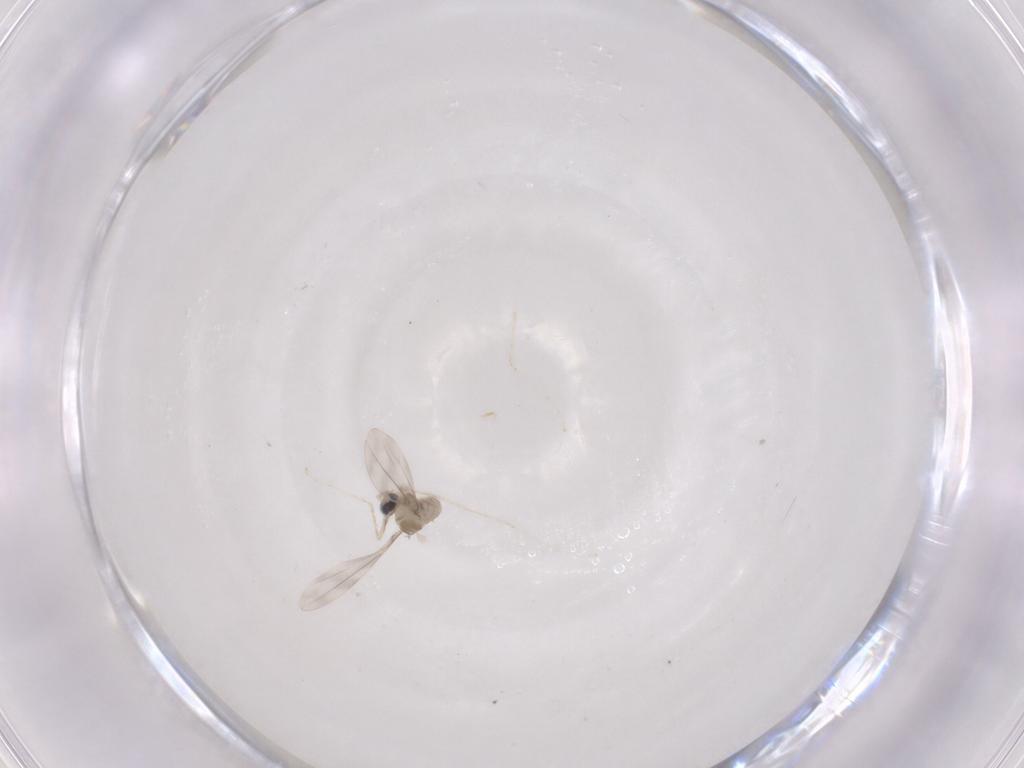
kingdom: Animalia
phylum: Arthropoda
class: Insecta
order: Diptera
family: Cecidomyiidae
